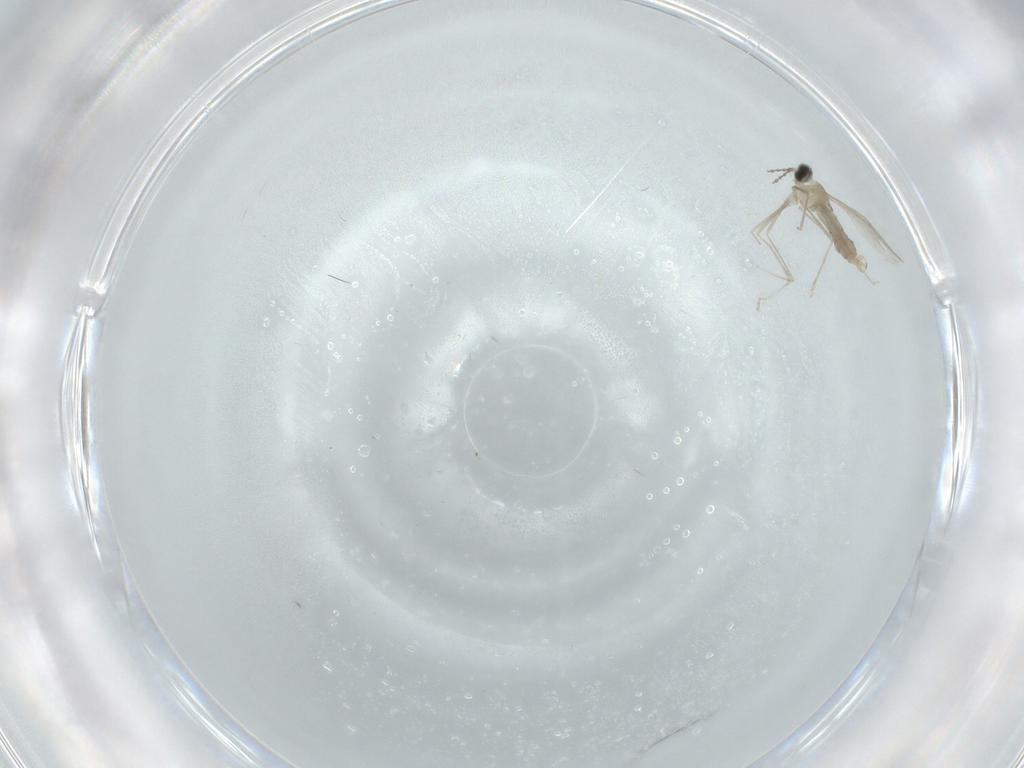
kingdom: Animalia
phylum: Arthropoda
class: Insecta
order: Diptera
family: Cecidomyiidae
